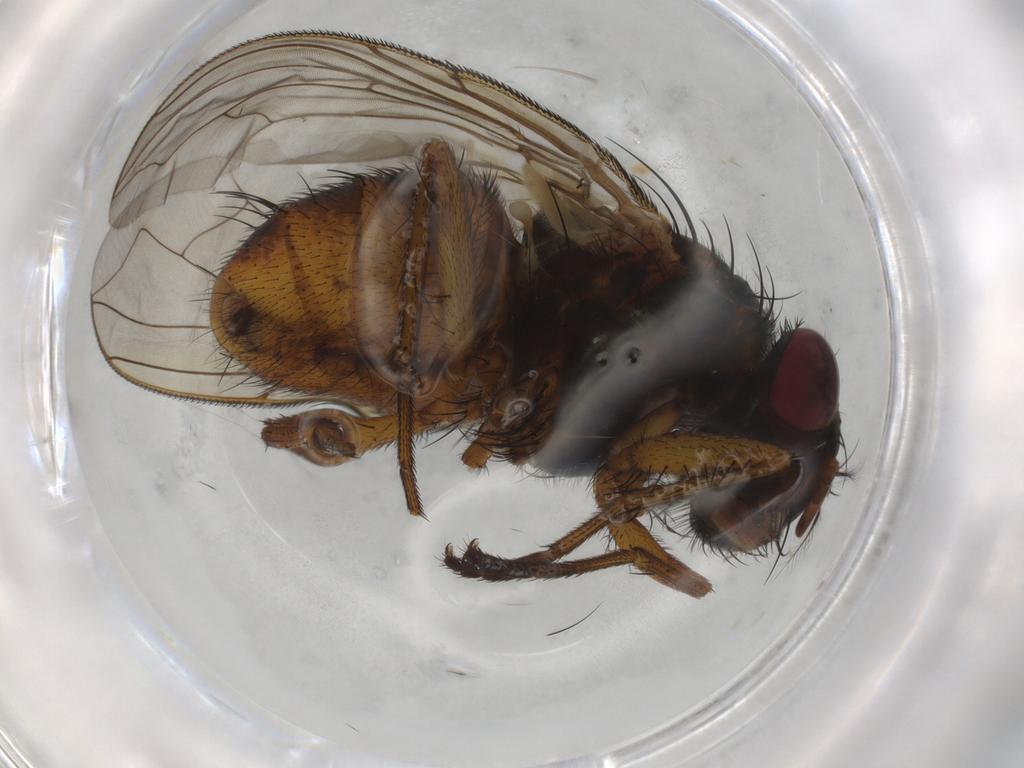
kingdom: Animalia
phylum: Arthropoda
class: Insecta
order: Diptera
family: Calliphoridae
